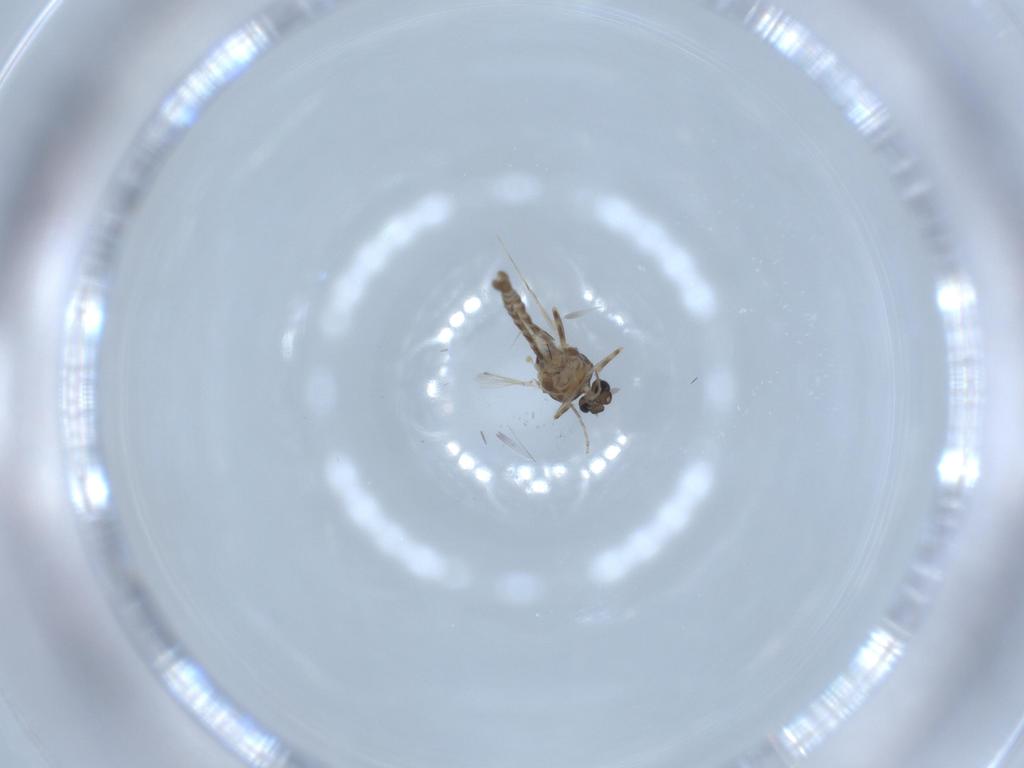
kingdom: Animalia
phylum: Arthropoda
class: Insecta
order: Diptera
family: Ceratopogonidae
